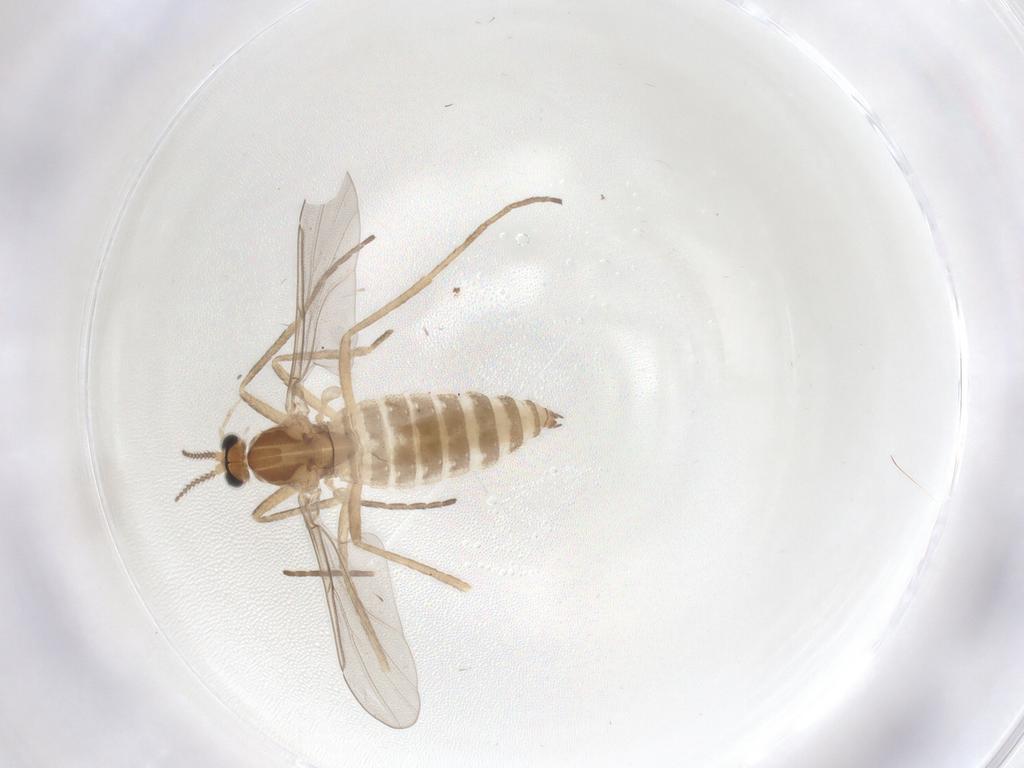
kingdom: Animalia
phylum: Arthropoda
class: Insecta
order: Diptera
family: Cecidomyiidae
